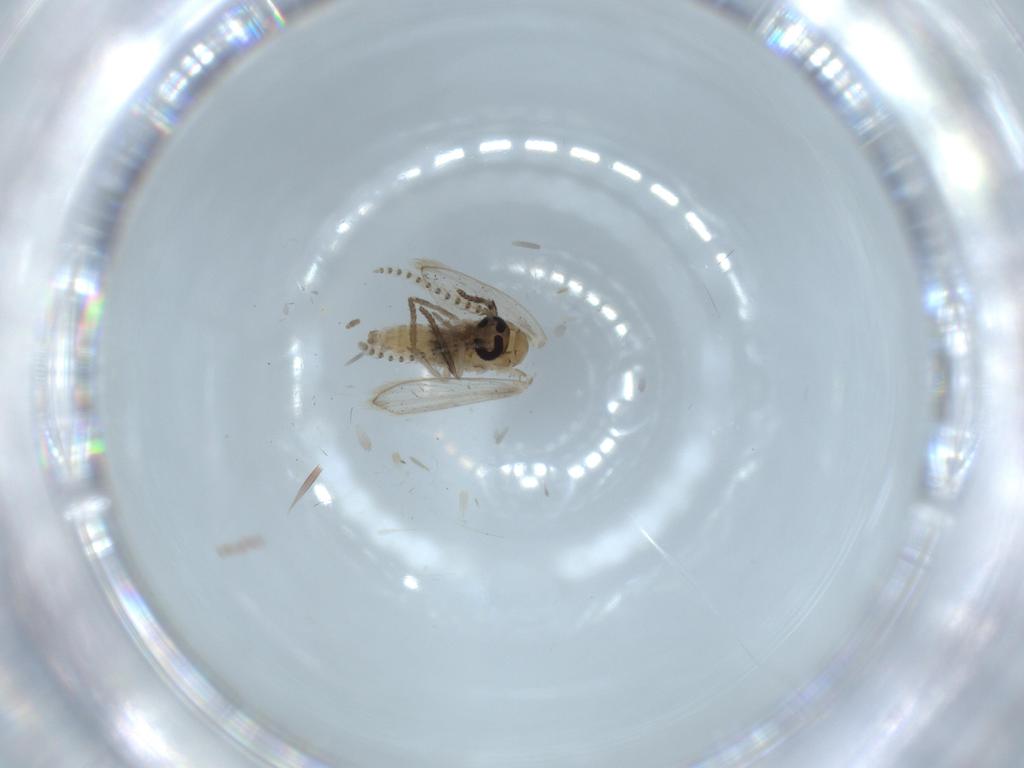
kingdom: Animalia
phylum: Arthropoda
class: Insecta
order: Diptera
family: Psychodidae
